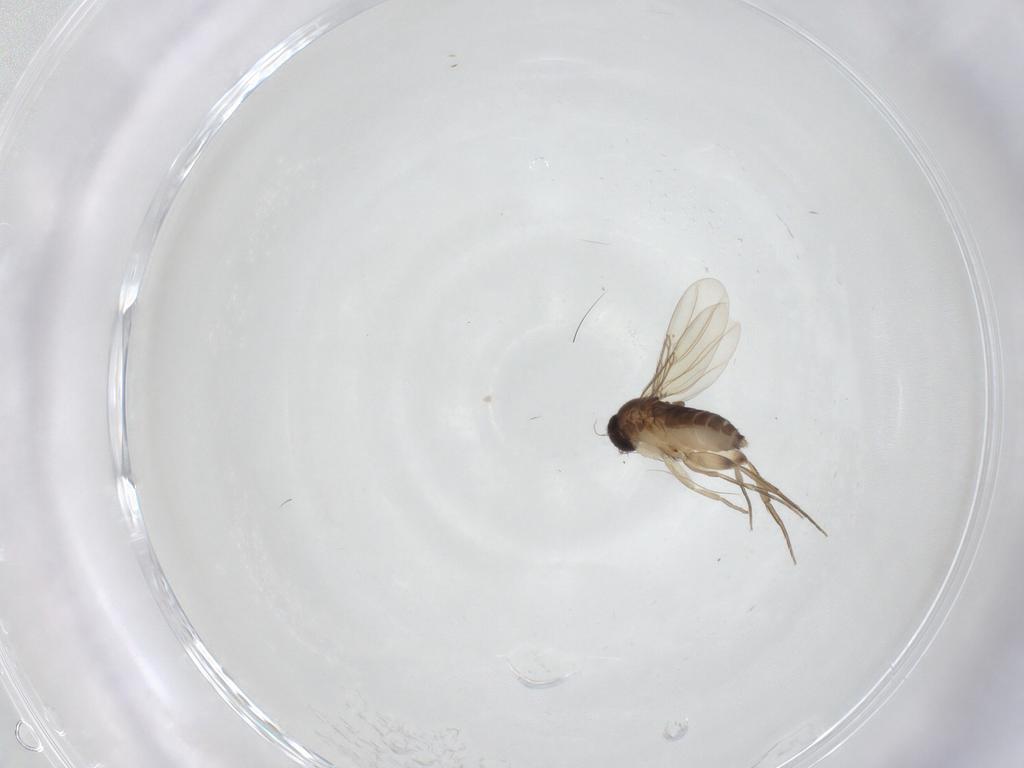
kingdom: Animalia
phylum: Arthropoda
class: Insecta
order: Diptera
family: Phoridae
